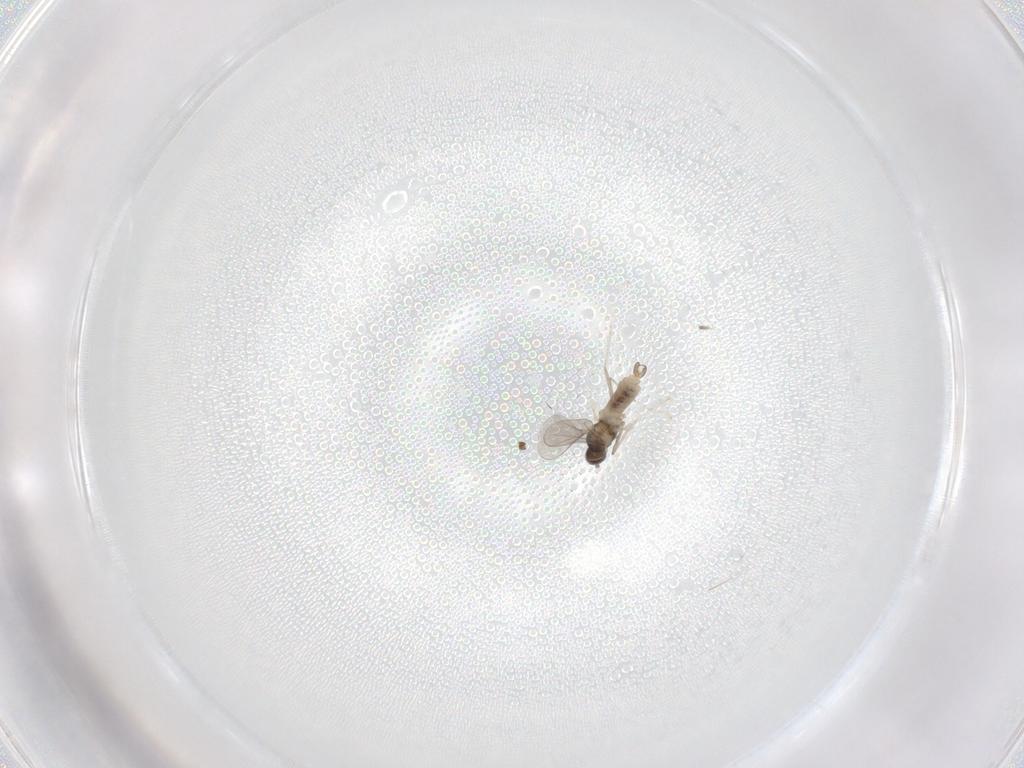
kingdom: Animalia
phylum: Arthropoda
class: Insecta
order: Diptera
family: Cecidomyiidae
